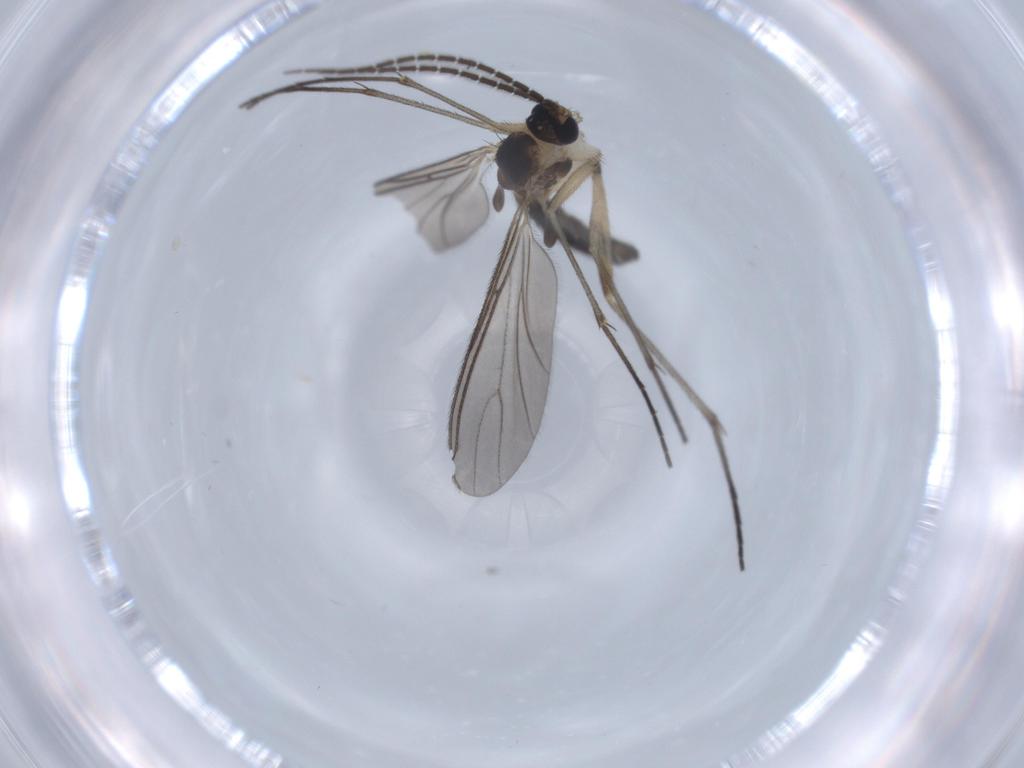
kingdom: Animalia
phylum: Arthropoda
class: Insecta
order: Diptera
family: Sciaridae
